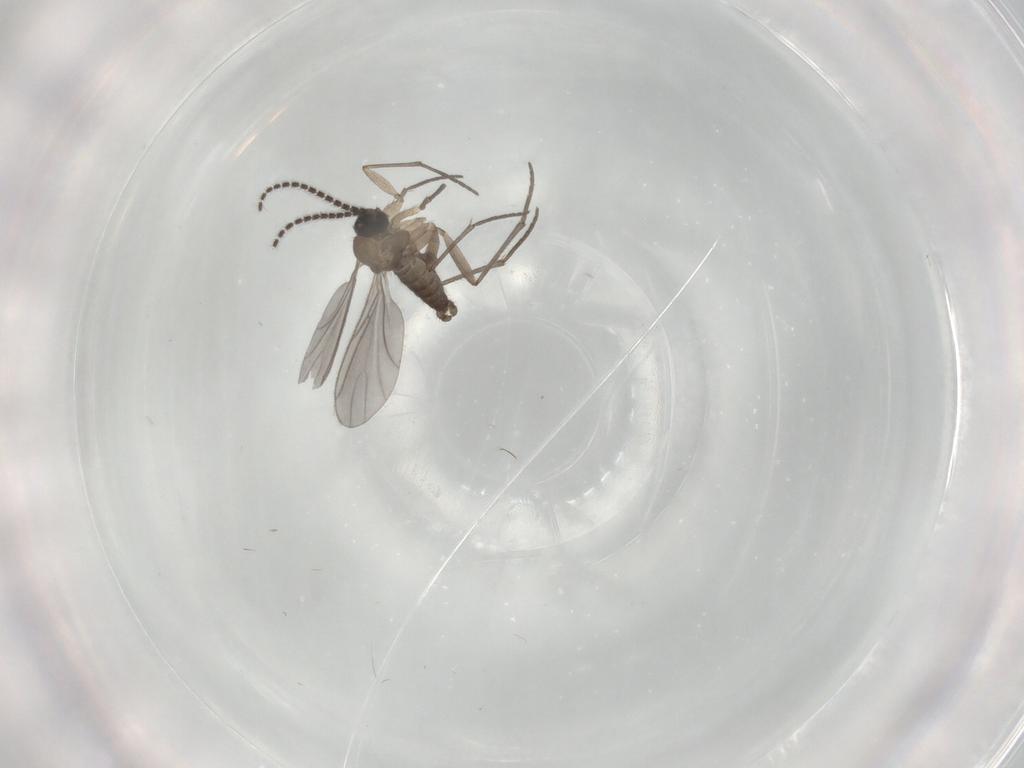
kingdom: Animalia
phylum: Arthropoda
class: Insecta
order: Diptera
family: Sciaridae
